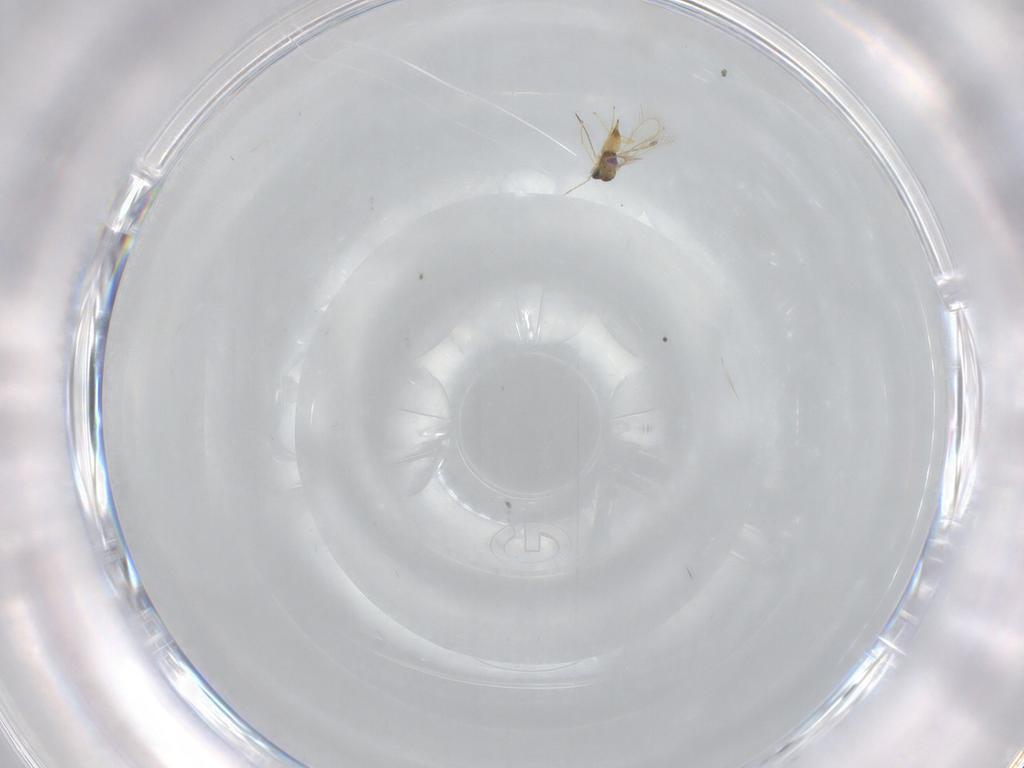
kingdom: Animalia
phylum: Arthropoda
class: Insecta
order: Hymenoptera
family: Mymaridae
